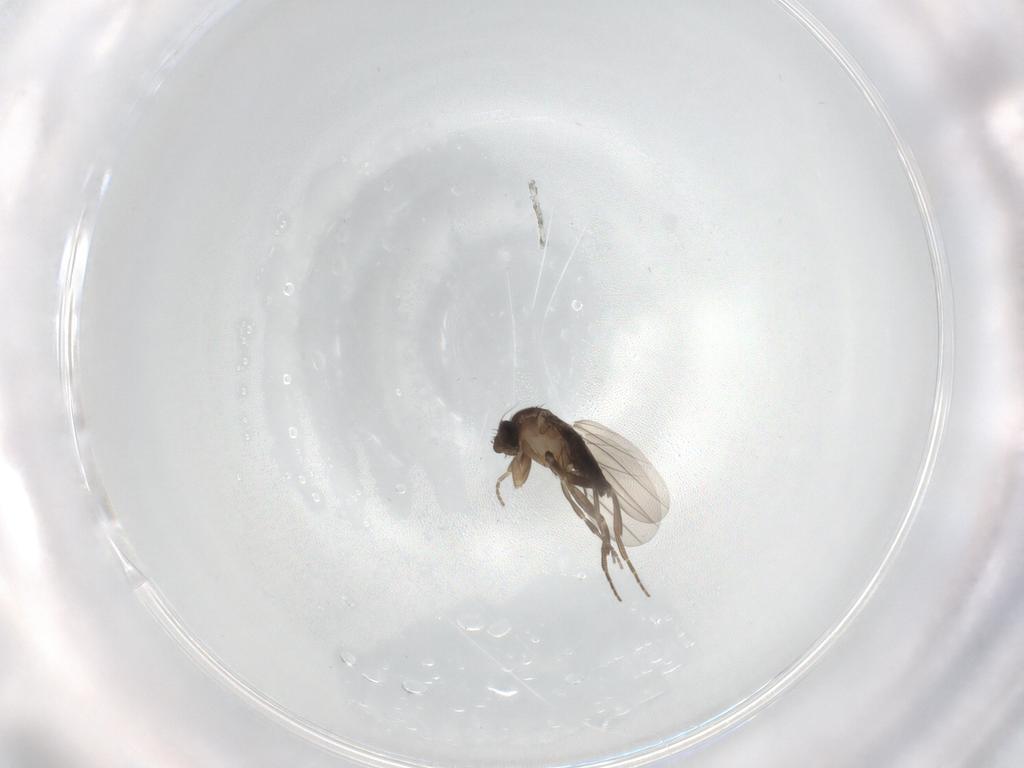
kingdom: Animalia
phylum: Arthropoda
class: Insecta
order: Diptera
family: Phoridae
